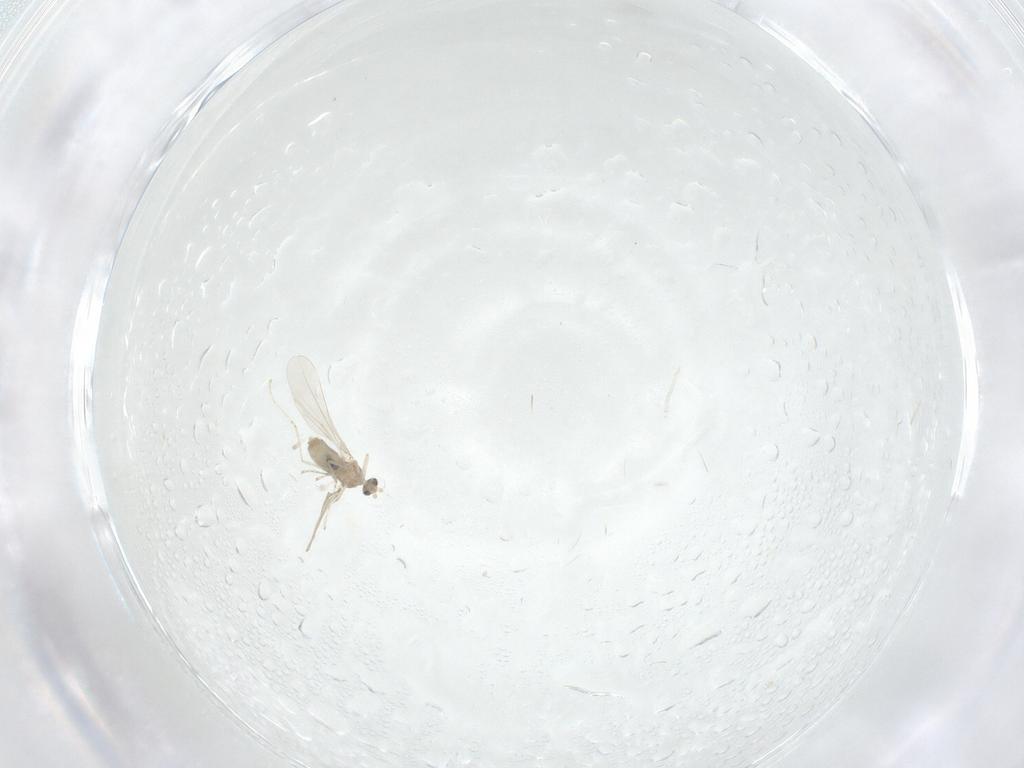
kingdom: Animalia
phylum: Arthropoda
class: Insecta
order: Diptera
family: Cecidomyiidae
